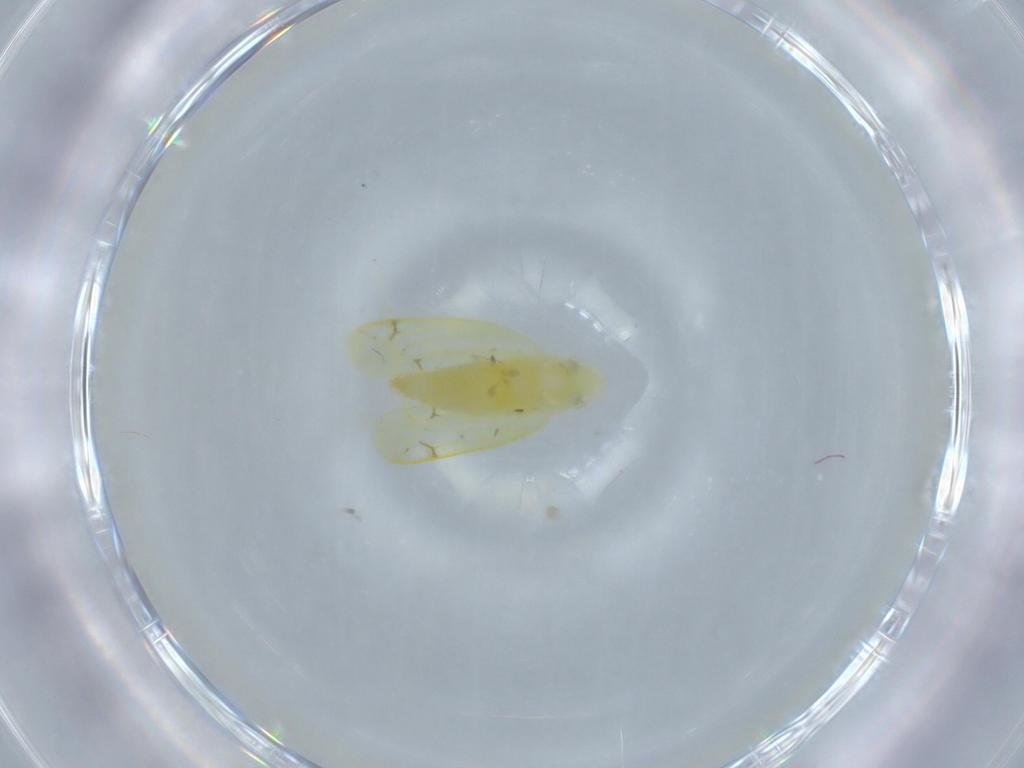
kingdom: Animalia
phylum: Arthropoda
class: Insecta
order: Hemiptera
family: Cicadellidae
